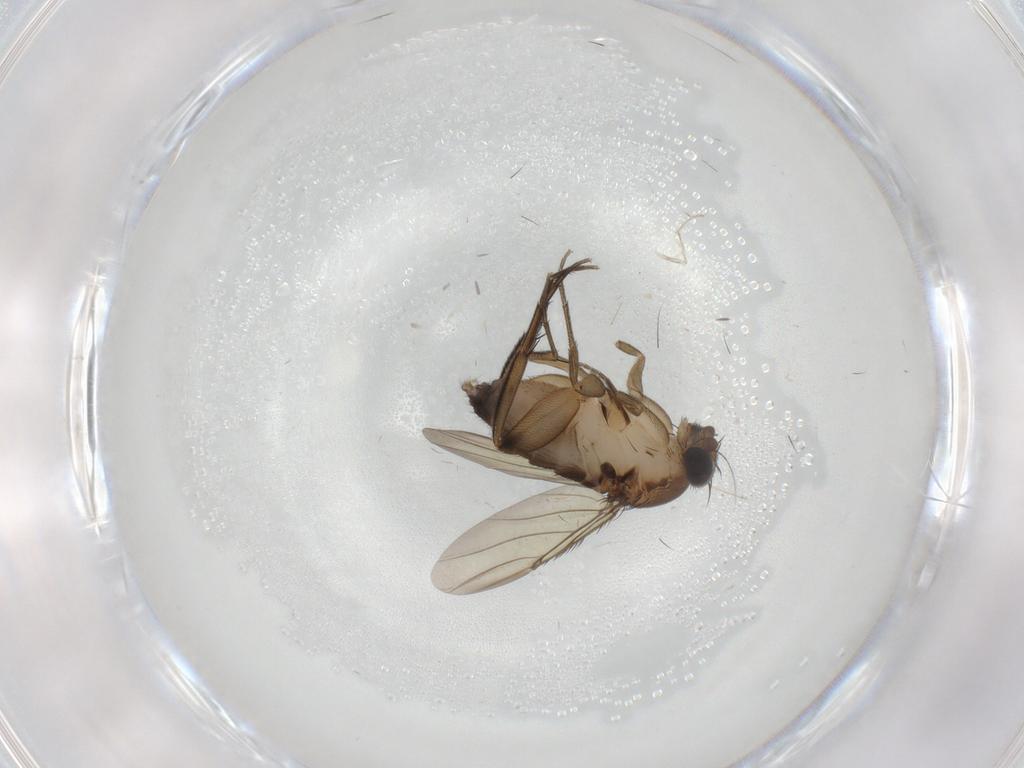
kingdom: Animalia
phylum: Arthropoda
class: Insecta
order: Diptera
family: Phoridae
